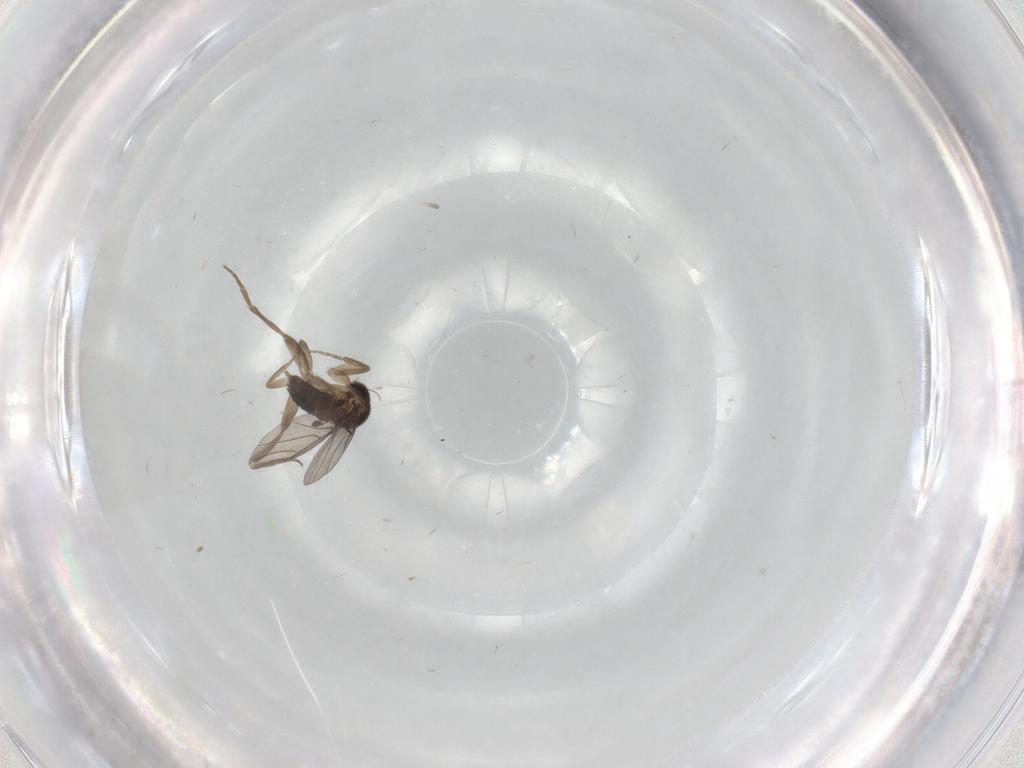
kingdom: Animalia
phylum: Arthropoda
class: Insecta
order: Diptera
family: Phoridae
